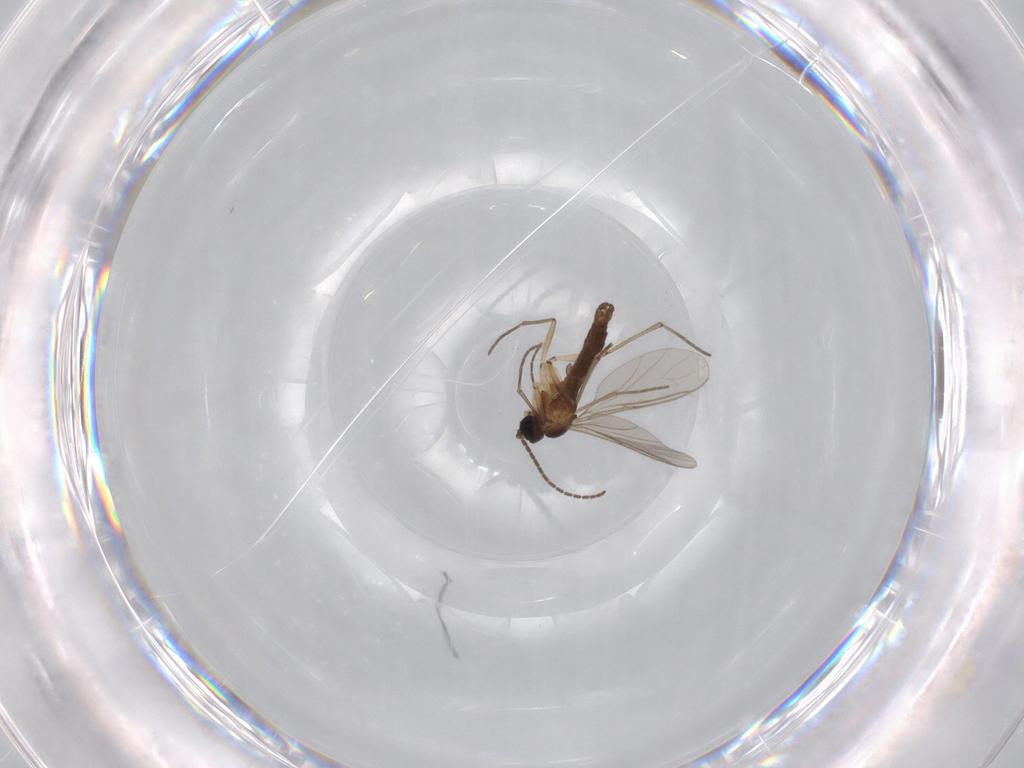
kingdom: Animalia
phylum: Arthropoda
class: Insecta
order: Diptera
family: Sciaridae
